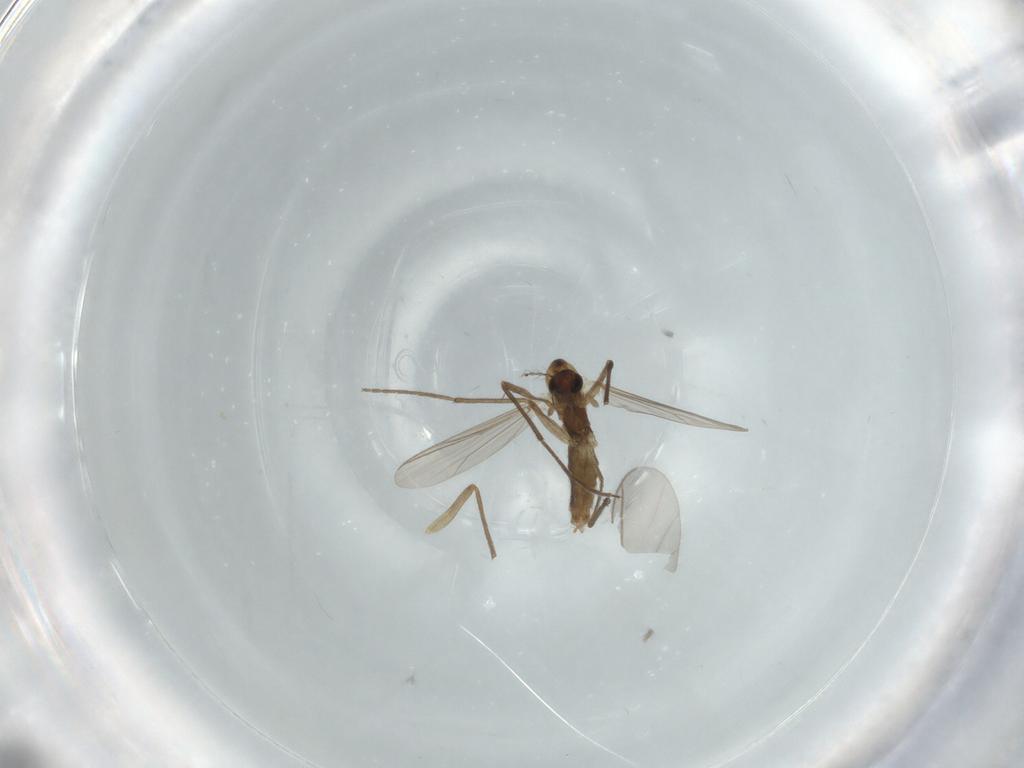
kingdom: Animalia
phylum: Arthropoda
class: Insecta
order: Diptera
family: Chironomidae
